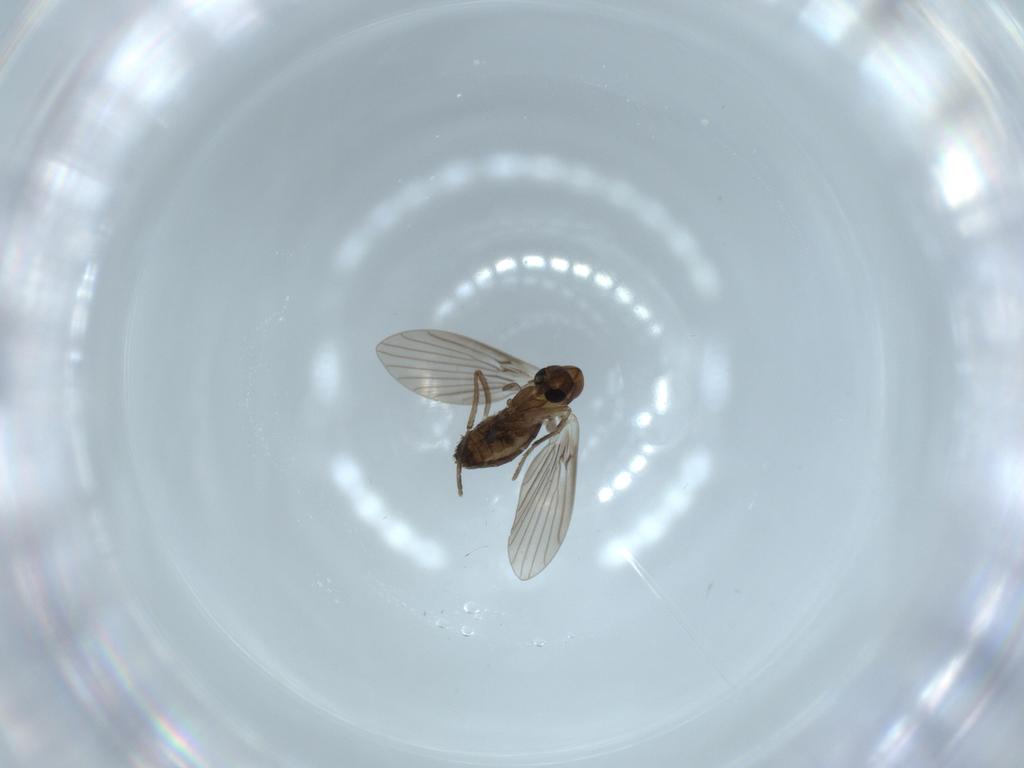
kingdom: Animalia
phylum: Arthropoda
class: Insecta
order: Diptera
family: Psychodidae
